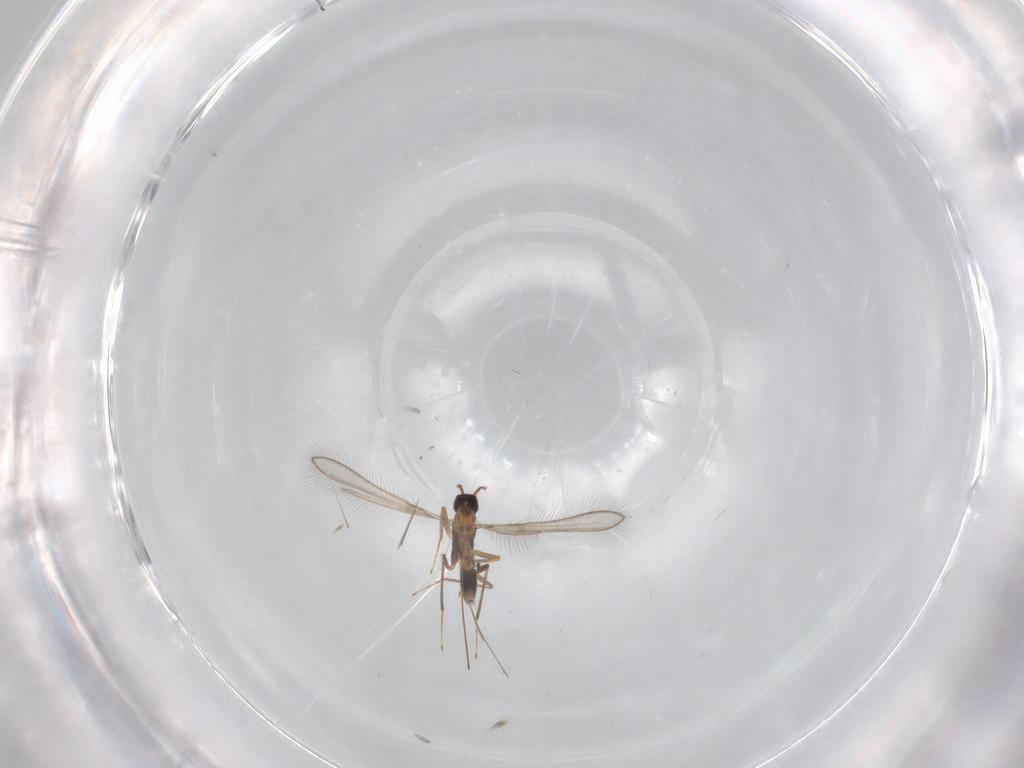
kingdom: Animalia
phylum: Arthropoda
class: Insecta
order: Hymenoptera
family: Mymaridae
